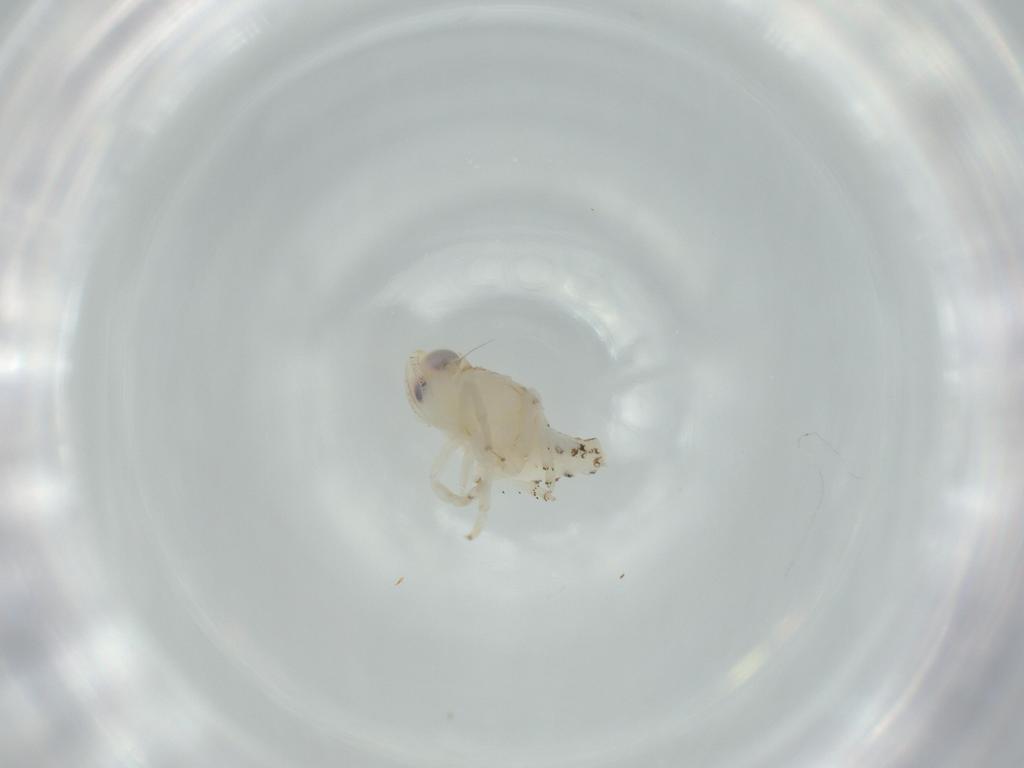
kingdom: Animalia
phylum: Arthropoda
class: Insecta
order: Hemiptera
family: Nogodinidae
